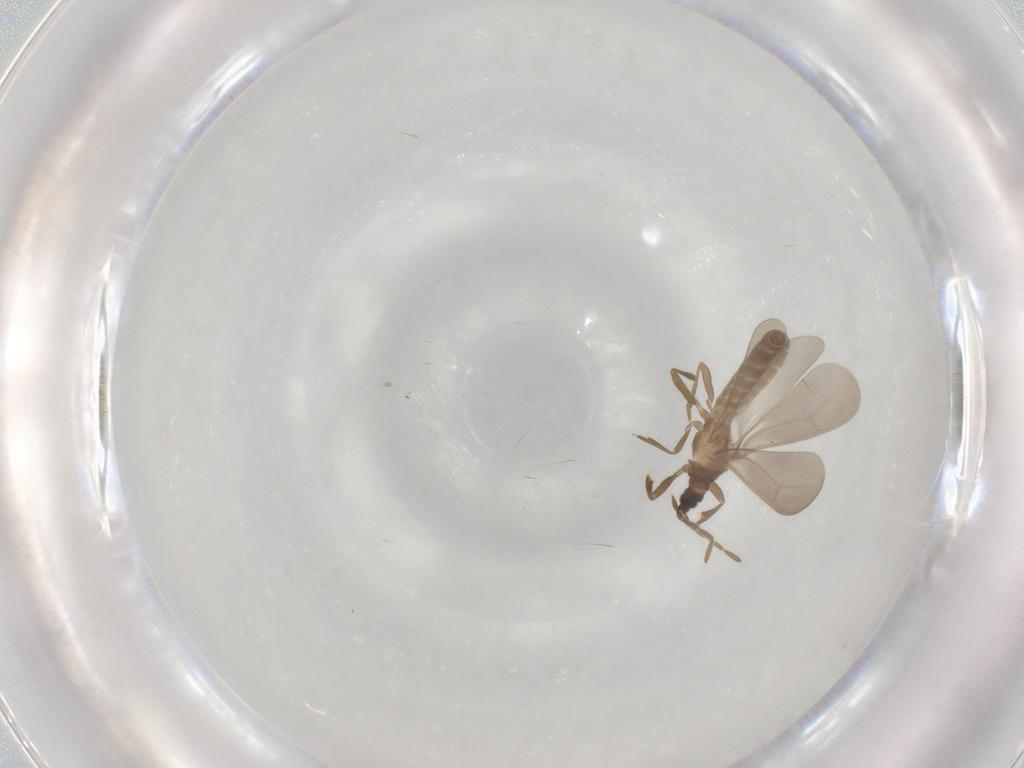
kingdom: Animalia
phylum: Arthropoda
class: Insecta
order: Hemiptera
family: Enicocephalidae
